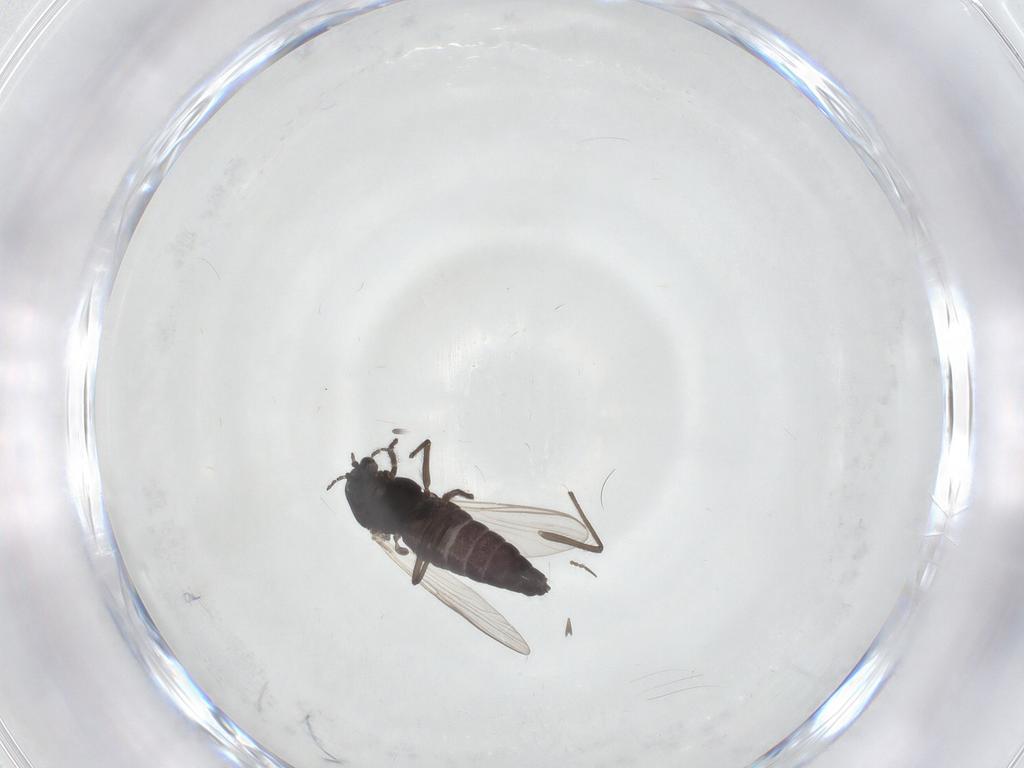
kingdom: Animalia
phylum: Arthropoda
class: Insecta
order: Diptera
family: Chironomidae
